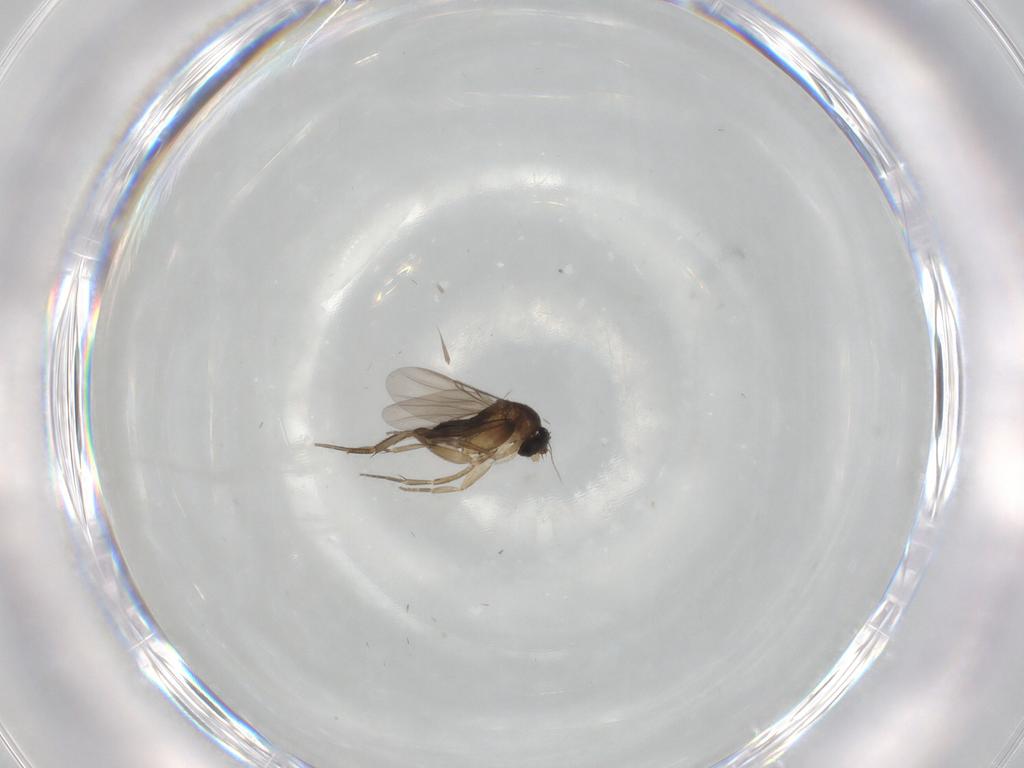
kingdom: Animalia
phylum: Arthropoda
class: Insecta
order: Diptera
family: Phoridae
